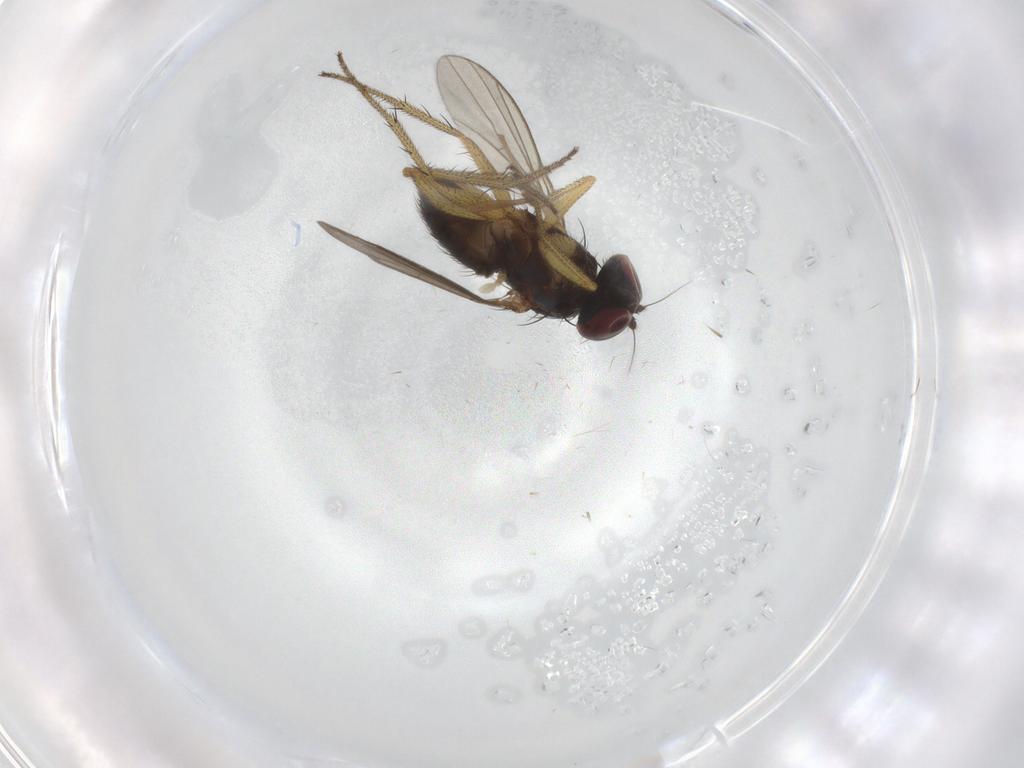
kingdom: Animalia
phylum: Arthropoda
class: Insecta
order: Diptera
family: Dolichopodidae
